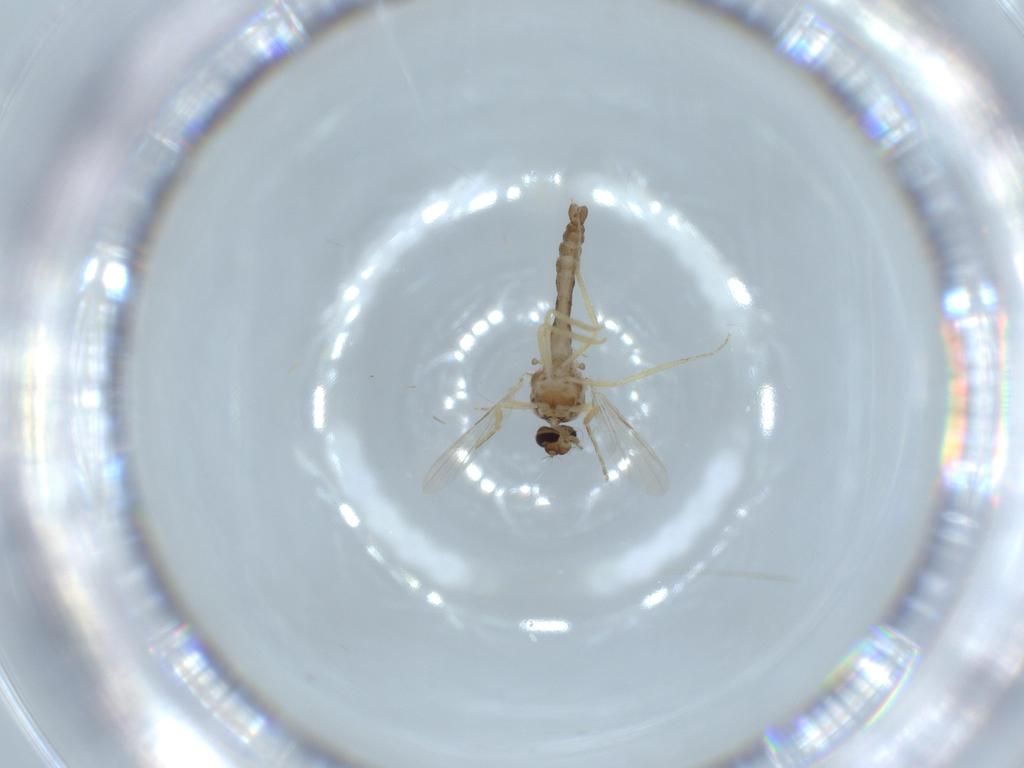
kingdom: Animalia
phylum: Arthropoda
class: Insecta
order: Diptera
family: Ceratopogonidae
